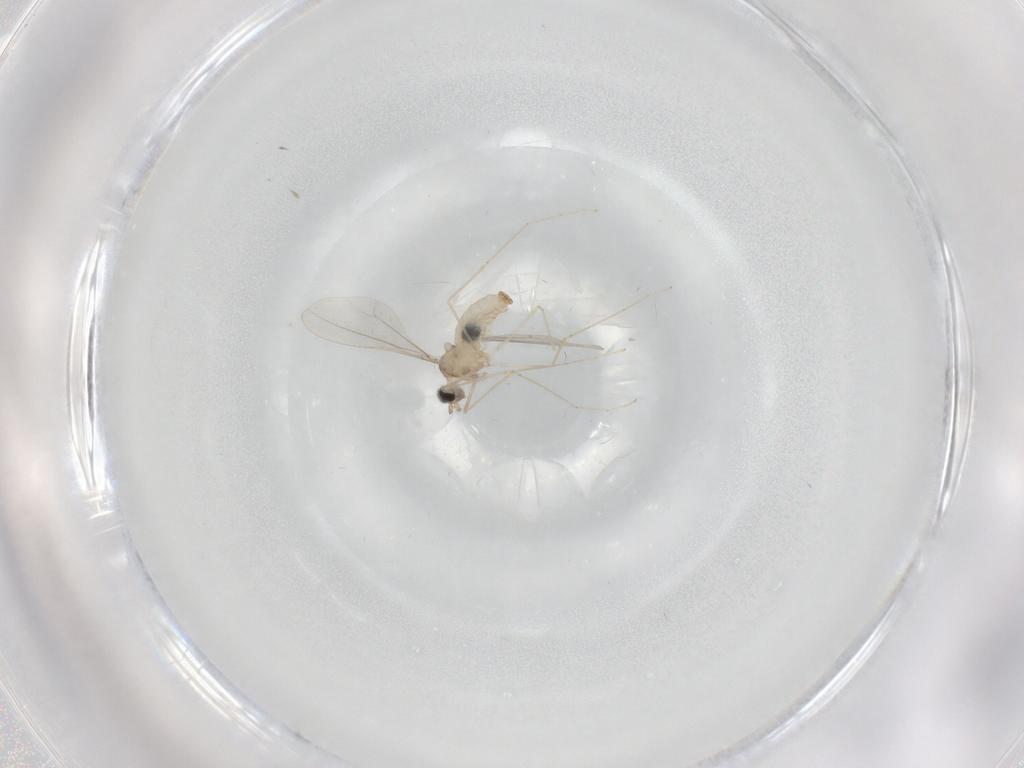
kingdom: Animalia
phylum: Arthropoda
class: Insecta
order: Diptera
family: Cecidomyiidae
